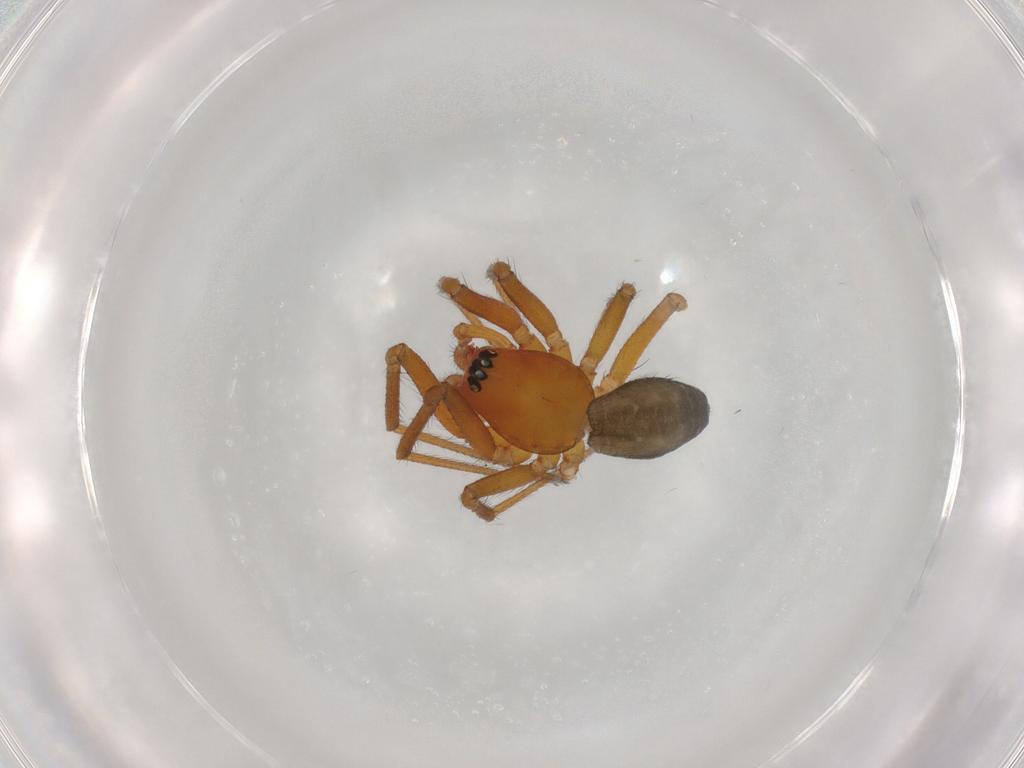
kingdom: Animalia
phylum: Arthropoda
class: Arachnida
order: Araneae
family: Linyphiidae
